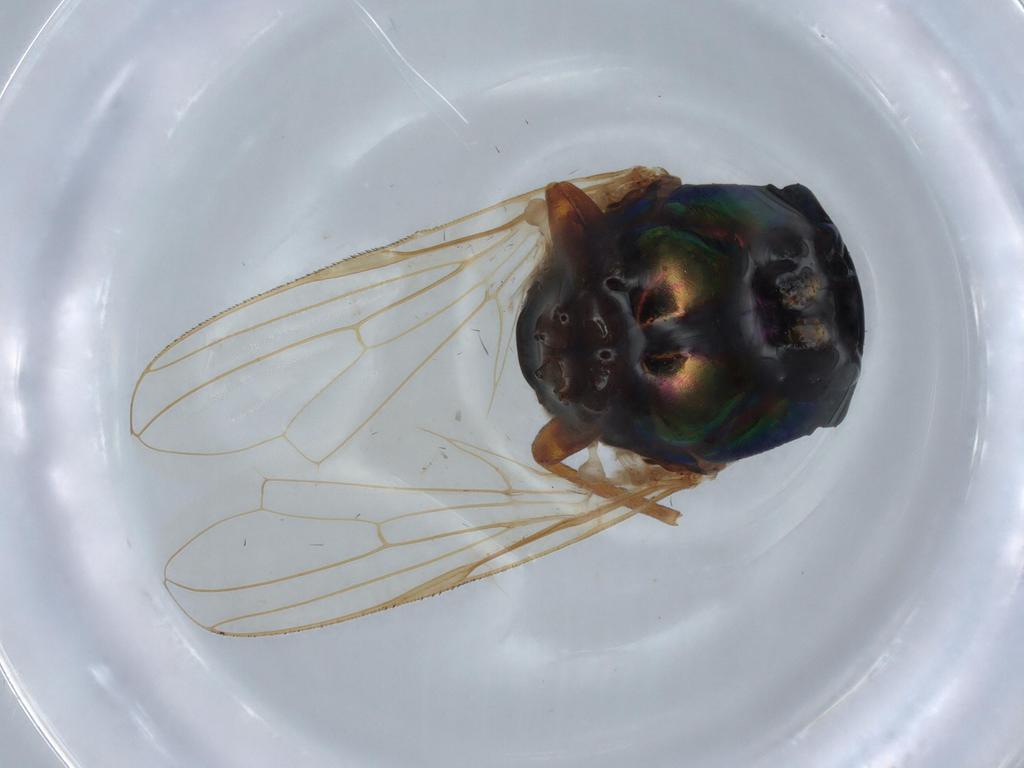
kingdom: Animalia
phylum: Arthropoda
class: Insecta
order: Diptera
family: Muscidae
